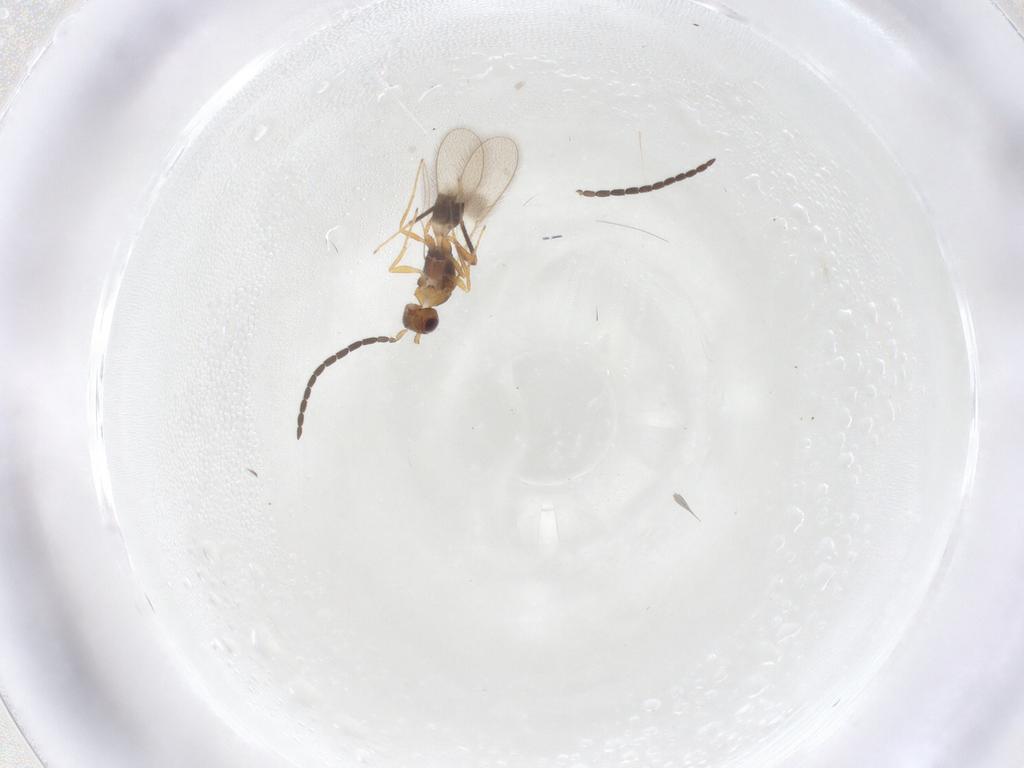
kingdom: Animalia
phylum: Arthropoda
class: Insecta
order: Hymenoptera
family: Mymaridae
